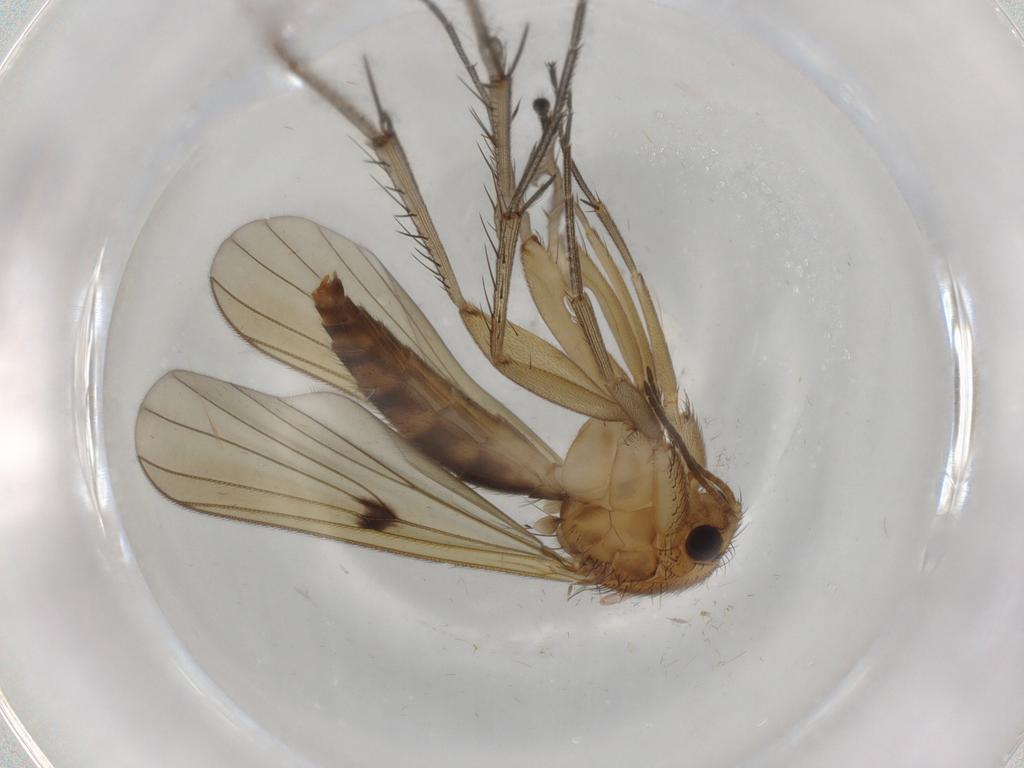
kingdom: Animalia
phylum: Arthropoda
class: Insecta
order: Diptera
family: Mycetophilidae
